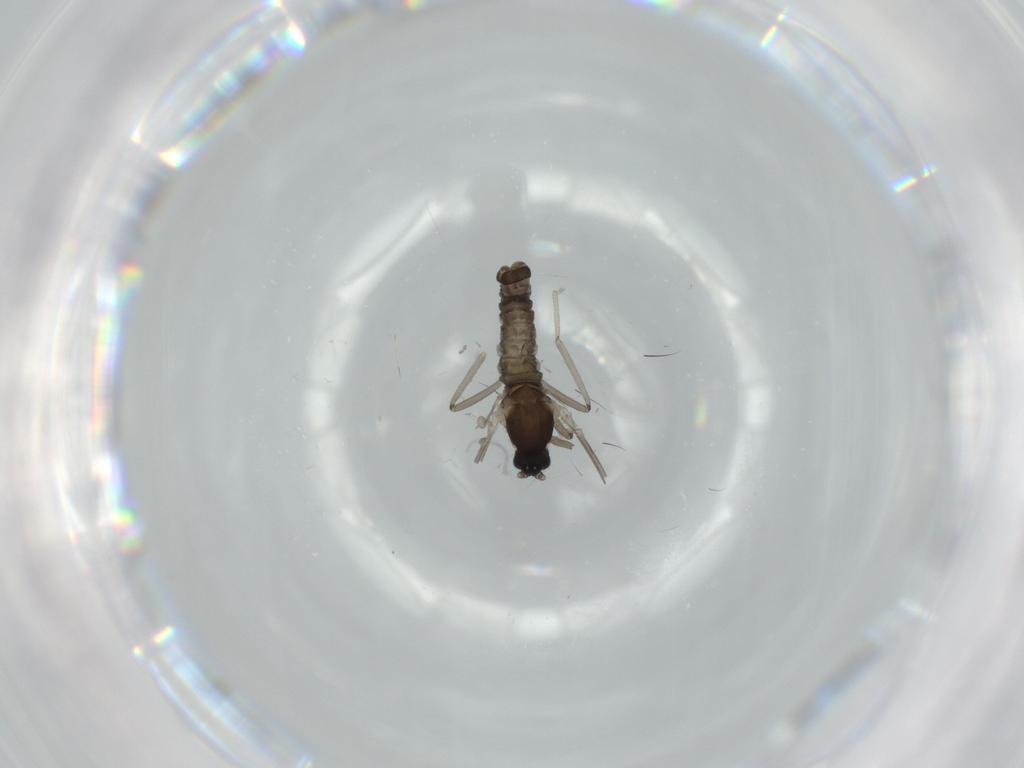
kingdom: Animalia
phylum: Arthropoda
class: Insecta
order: Diptera
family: Cecidomyiidae
